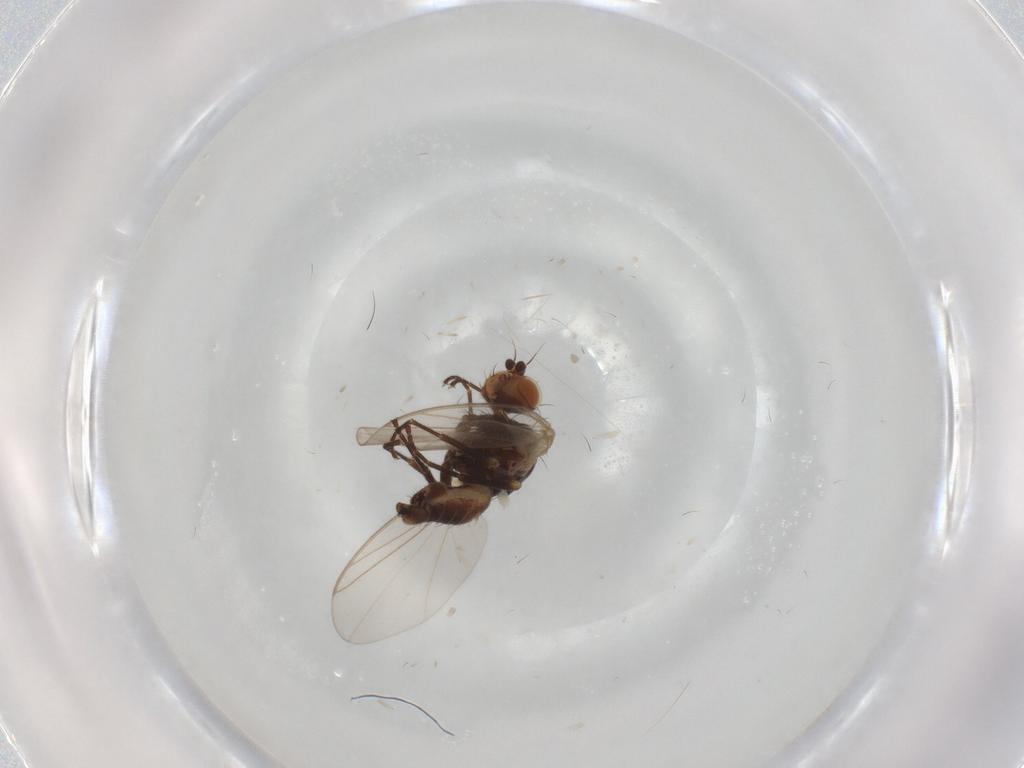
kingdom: Animalia
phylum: Arthropoda
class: Insecta
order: Diptera
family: Agromyzidae
